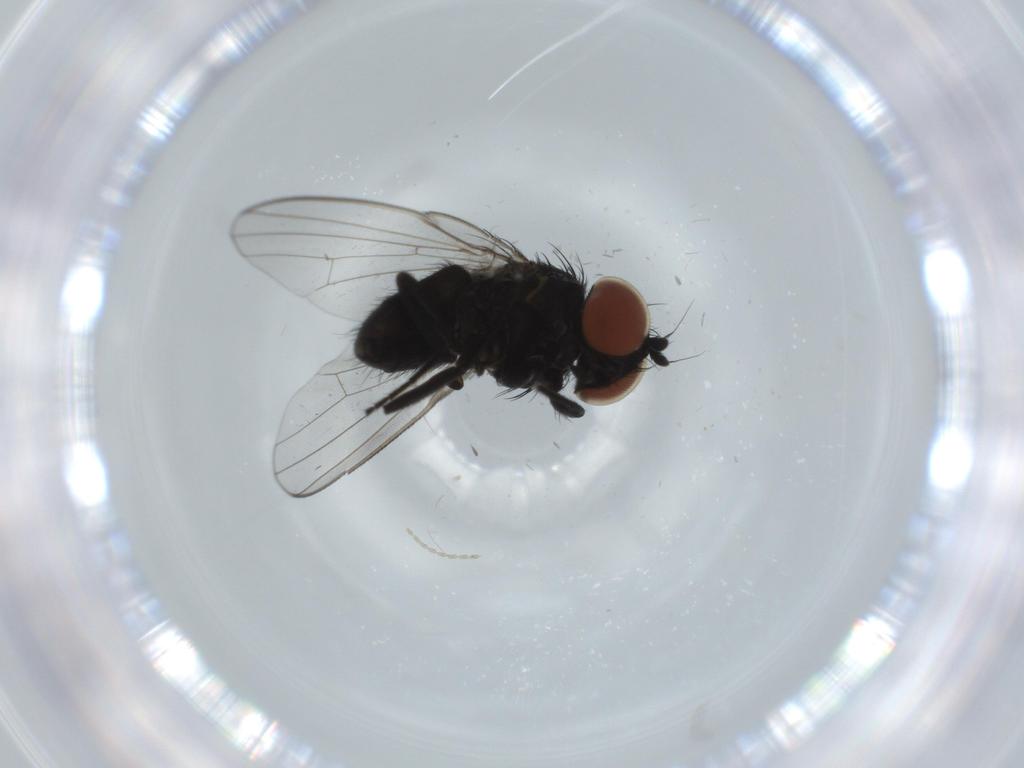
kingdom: Animalia
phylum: Arthropoda
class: Insecta
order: Diptera
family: Milichiidae
